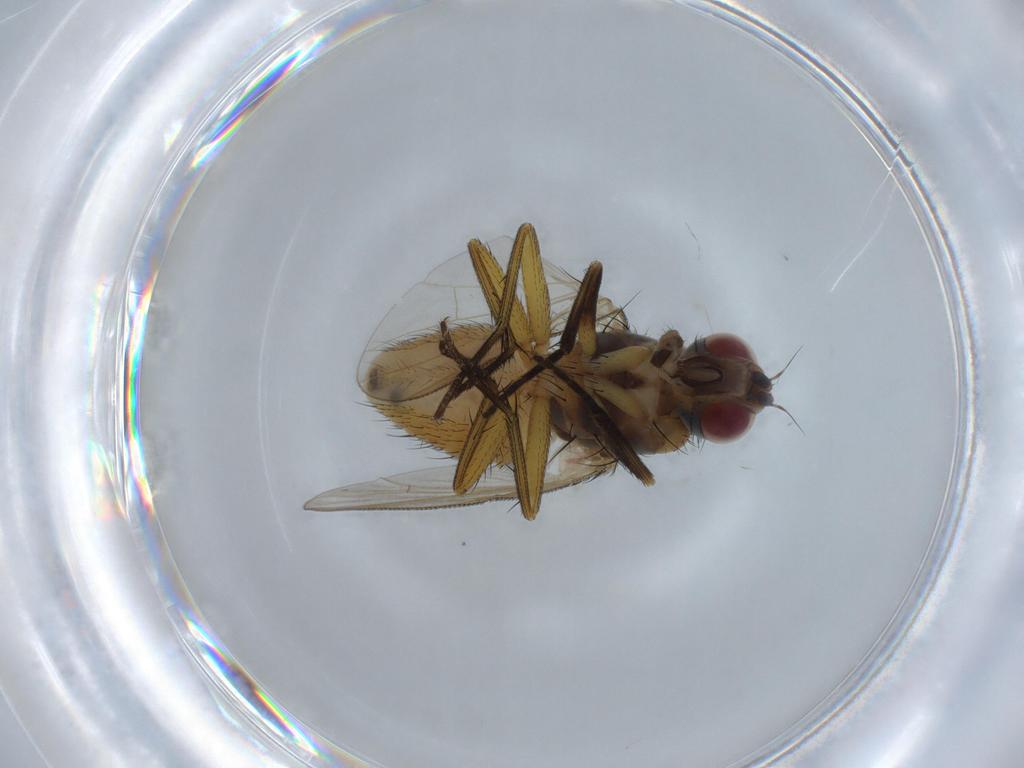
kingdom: Animalia
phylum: Arthropoda
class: Insecta
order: Diptera
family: Muscidae
